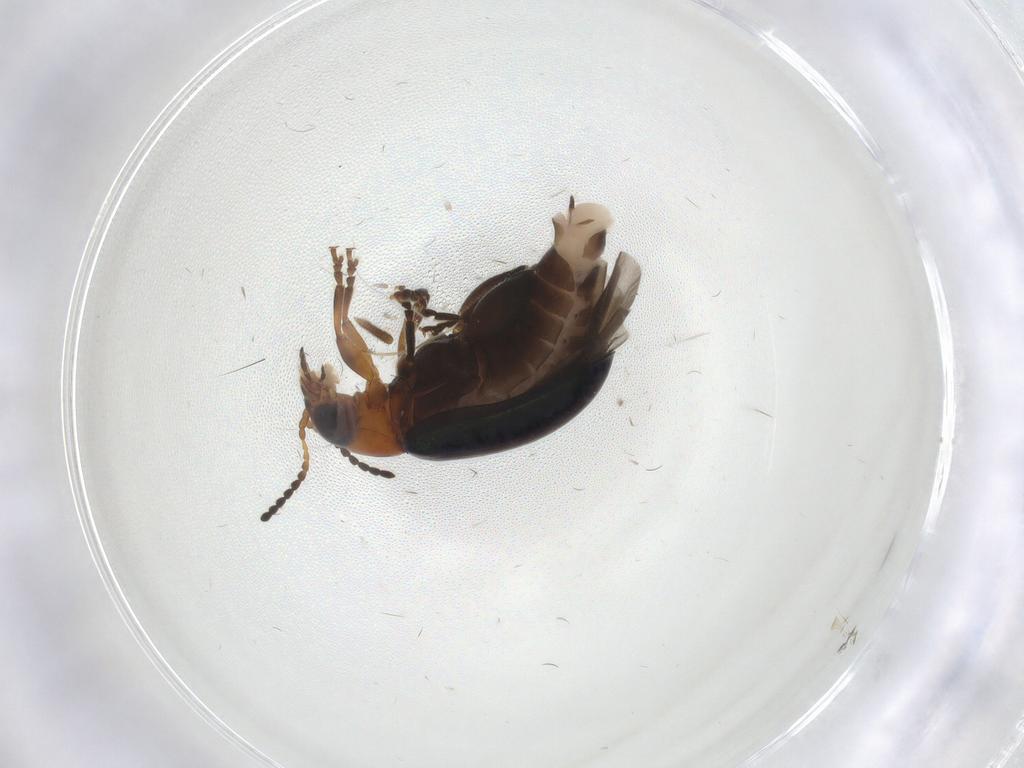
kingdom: Animalia
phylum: Arthropoda
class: Insecta
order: Coleoptera
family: Chrysomelidae
